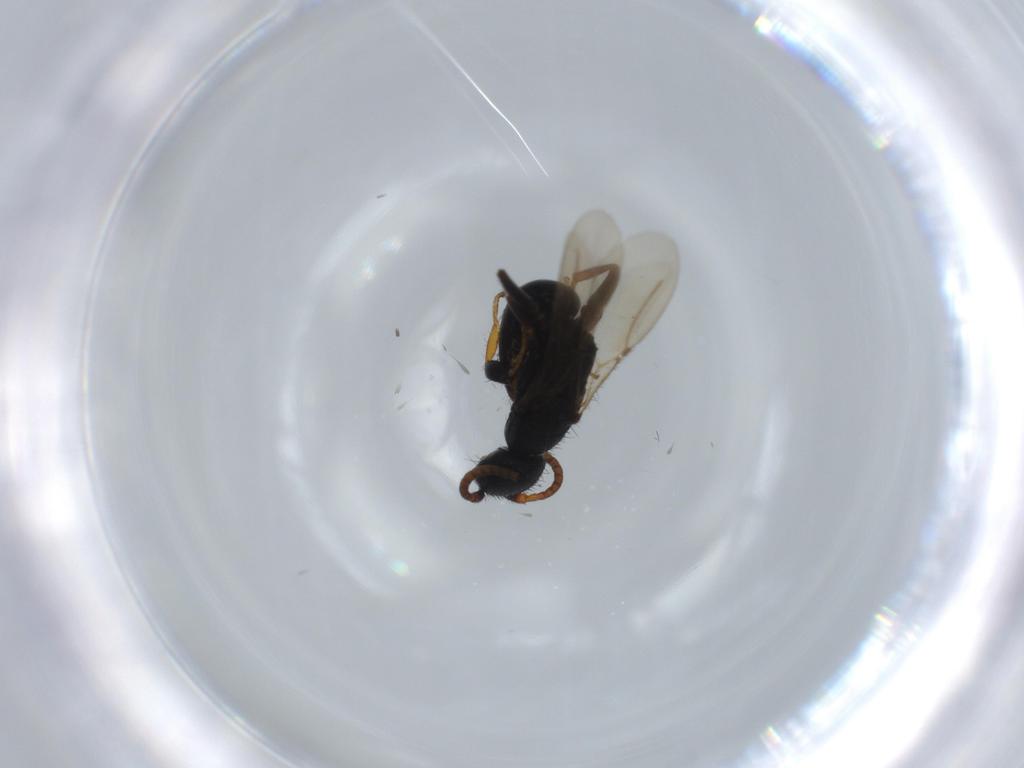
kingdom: Animalia
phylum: Arthropoda
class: Insecta
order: Hymenoptera
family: Bethylidae
